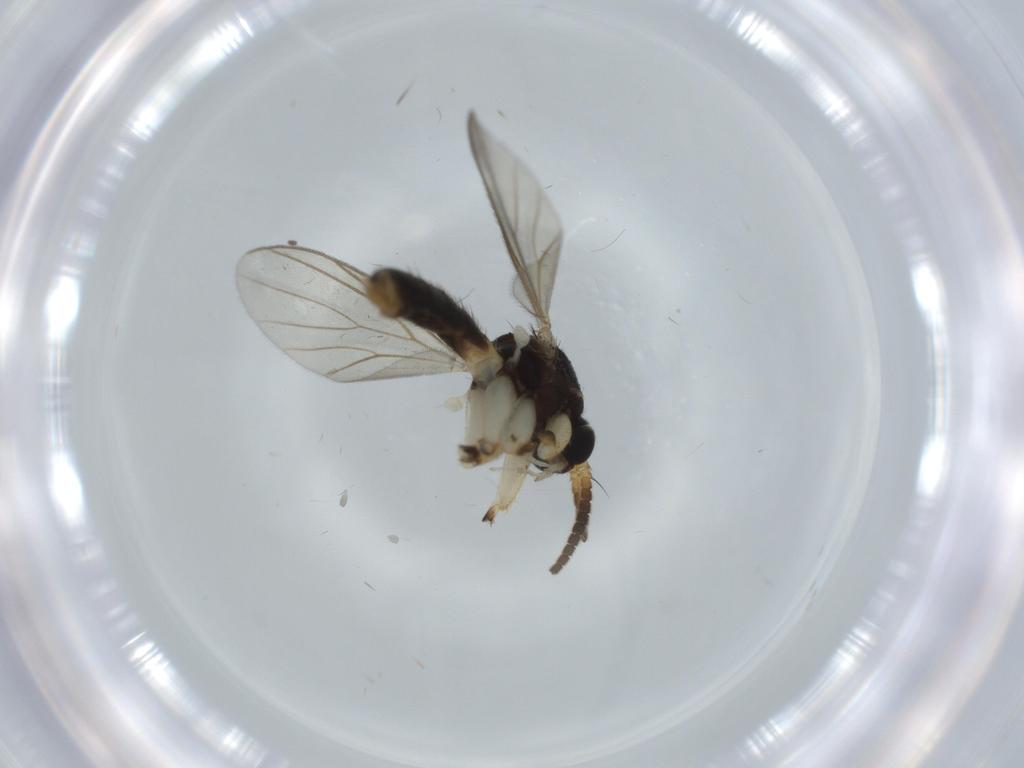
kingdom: Animalia
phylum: Arthropoda
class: Insecta
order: Diptera
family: Sciaridae
